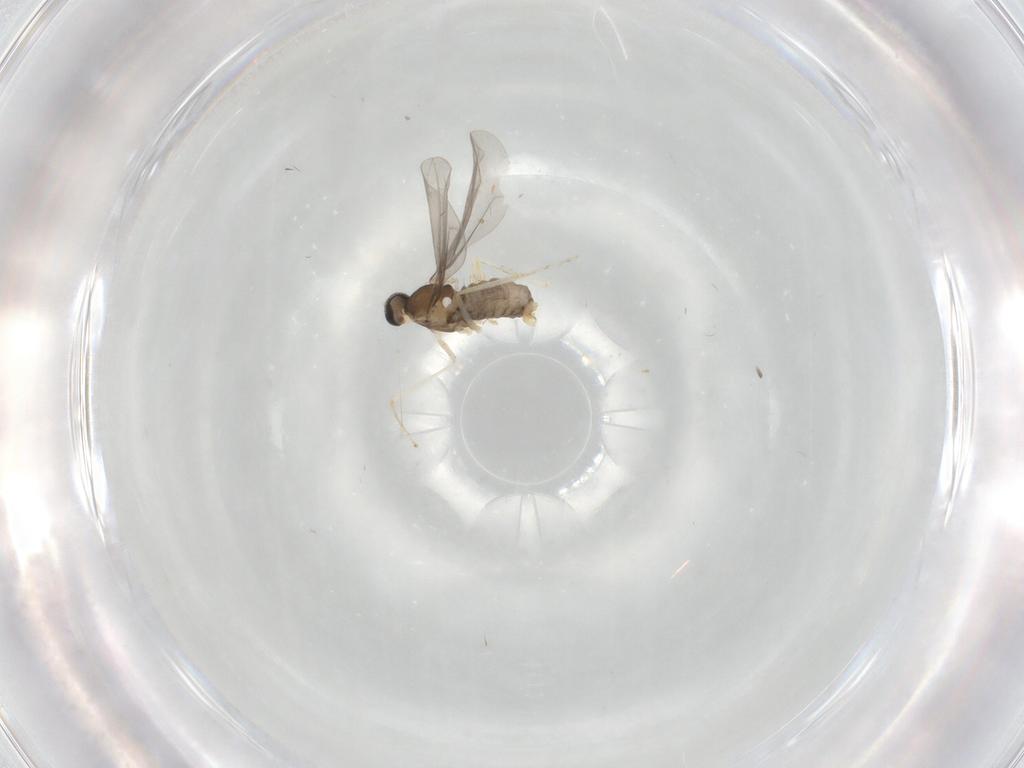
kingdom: Animalia
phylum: Arthropoda
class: Insecta
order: Diptera
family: Cecidomyiidae
